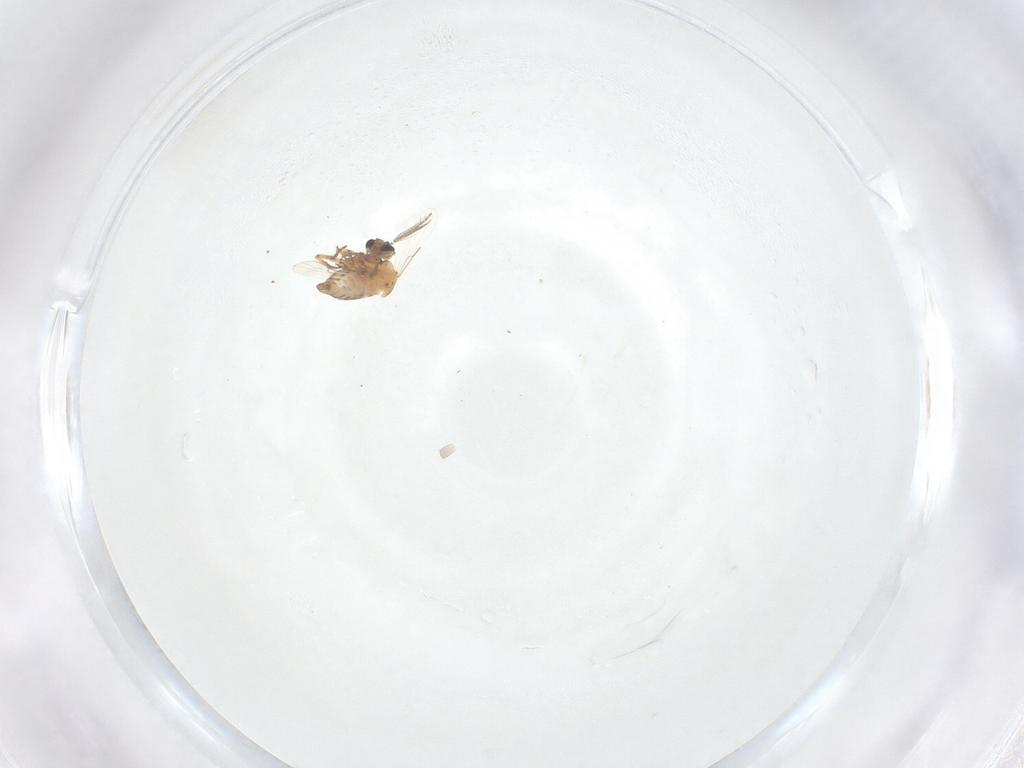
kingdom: Animalia
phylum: Arthropoda
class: Insecta
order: Diptera
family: Ceratopogonidae
